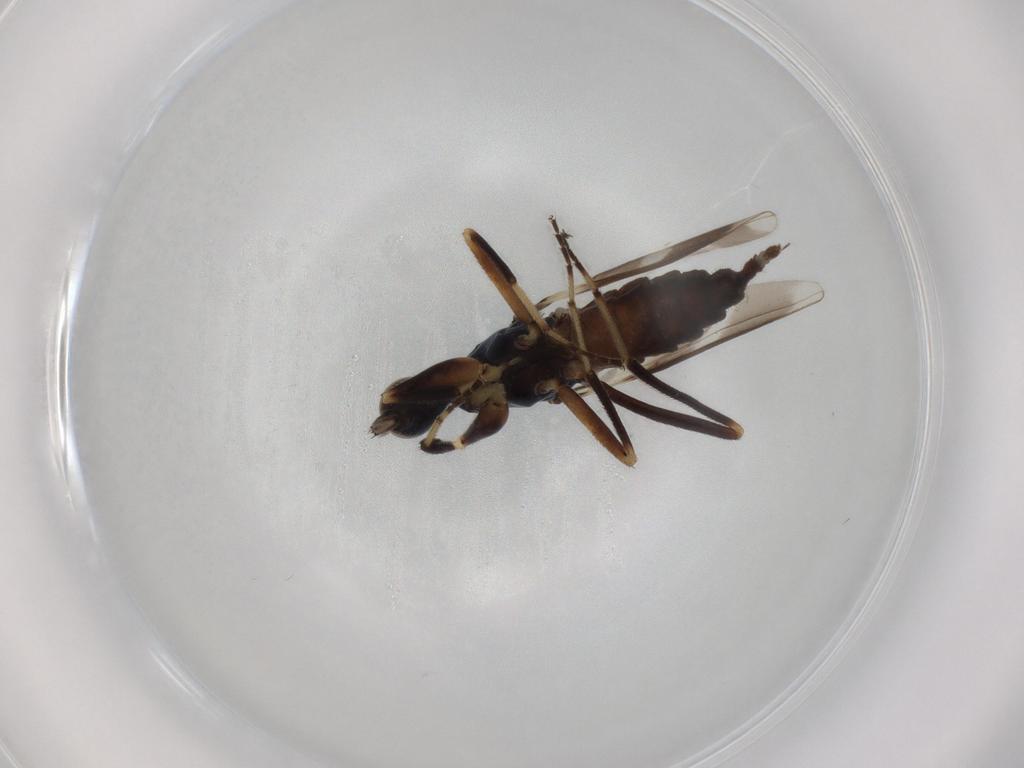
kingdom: Animalia
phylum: Arthropoda
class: Insecta
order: Diptera
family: Hybotidae
